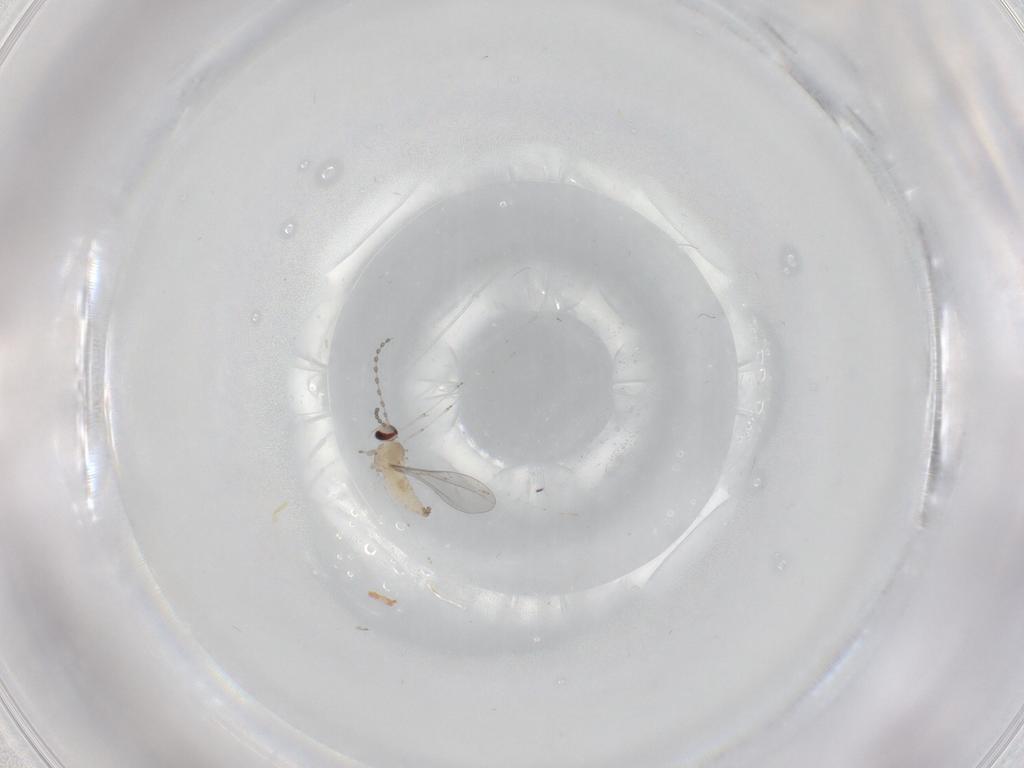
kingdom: Animalia
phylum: Arthropoda
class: Insecta
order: Diptera
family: Cecidomyiidae
